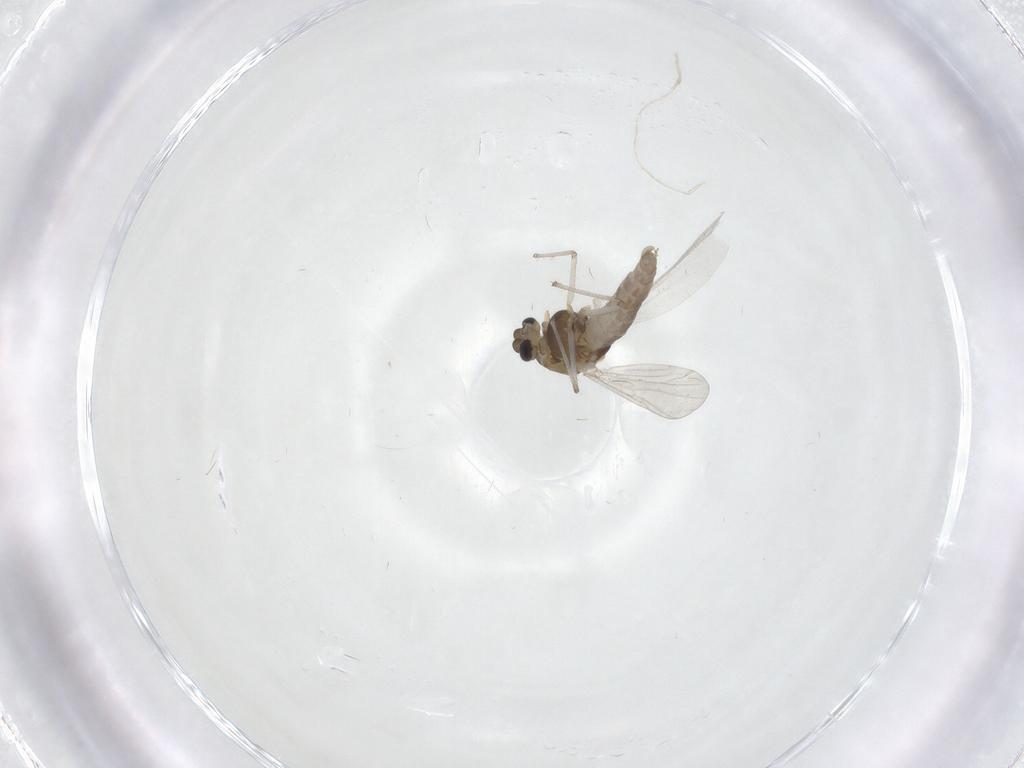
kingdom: Animalia
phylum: Arthropoda
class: Insecta
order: Diptera
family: Chironomidae
